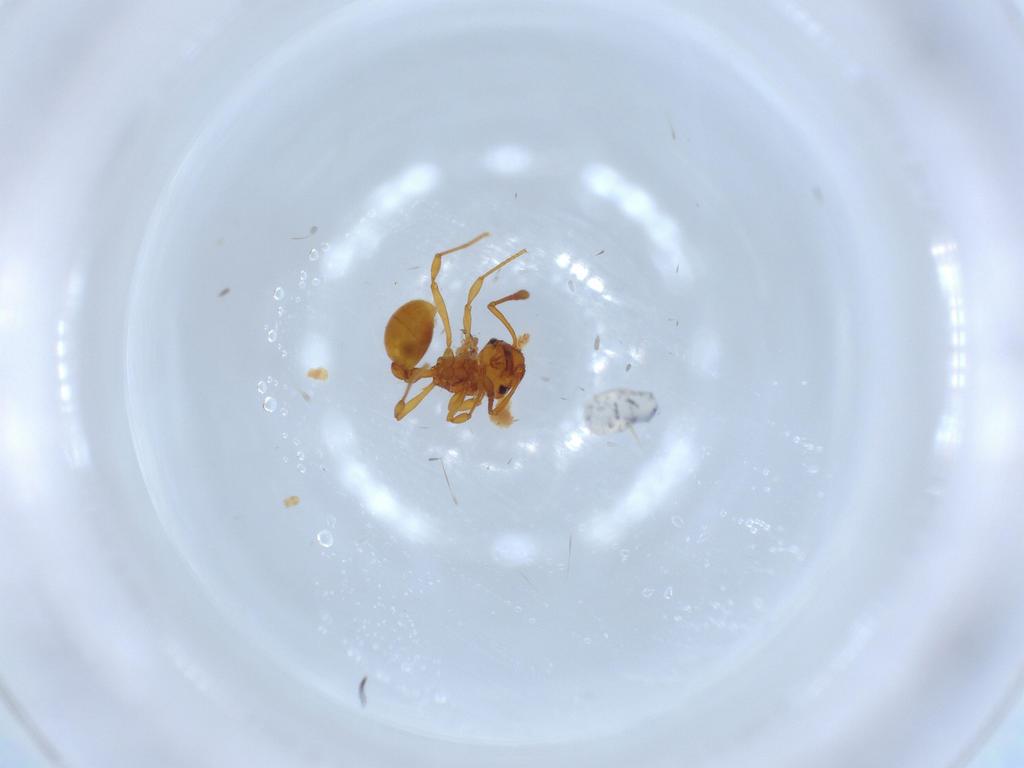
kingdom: Animalia
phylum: Arthropoda
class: Insecta
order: Hymenoptera
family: Formicidae
